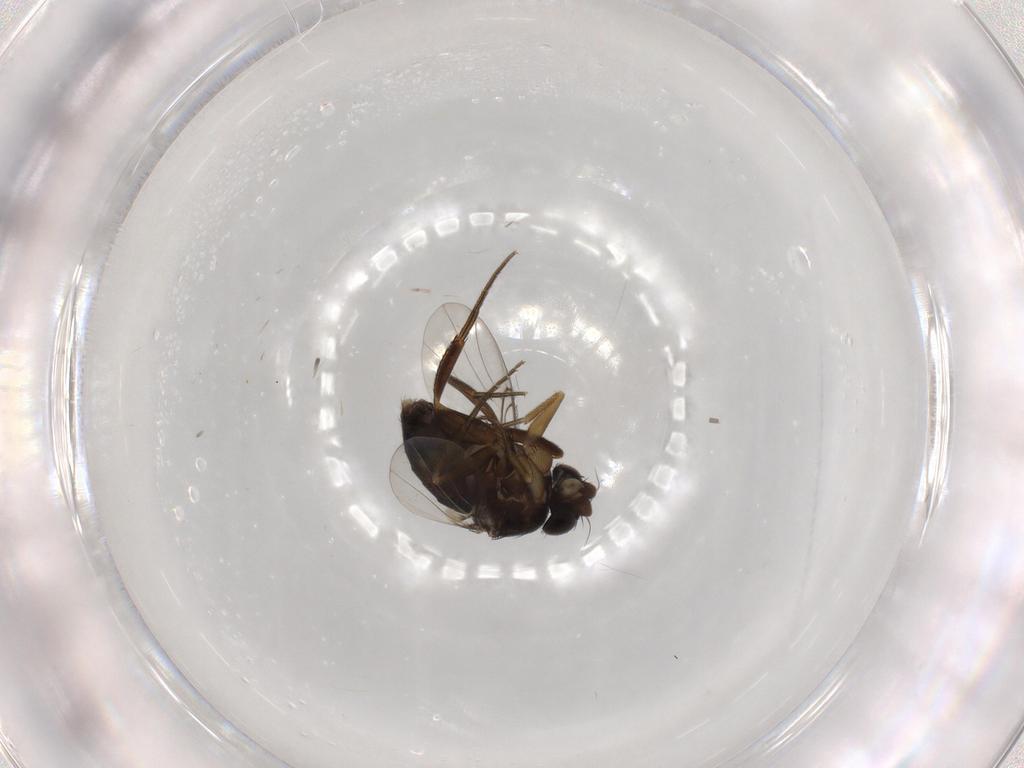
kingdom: Animalia
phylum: Arthropoda
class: Insecta
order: Diptera
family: Phoridae
